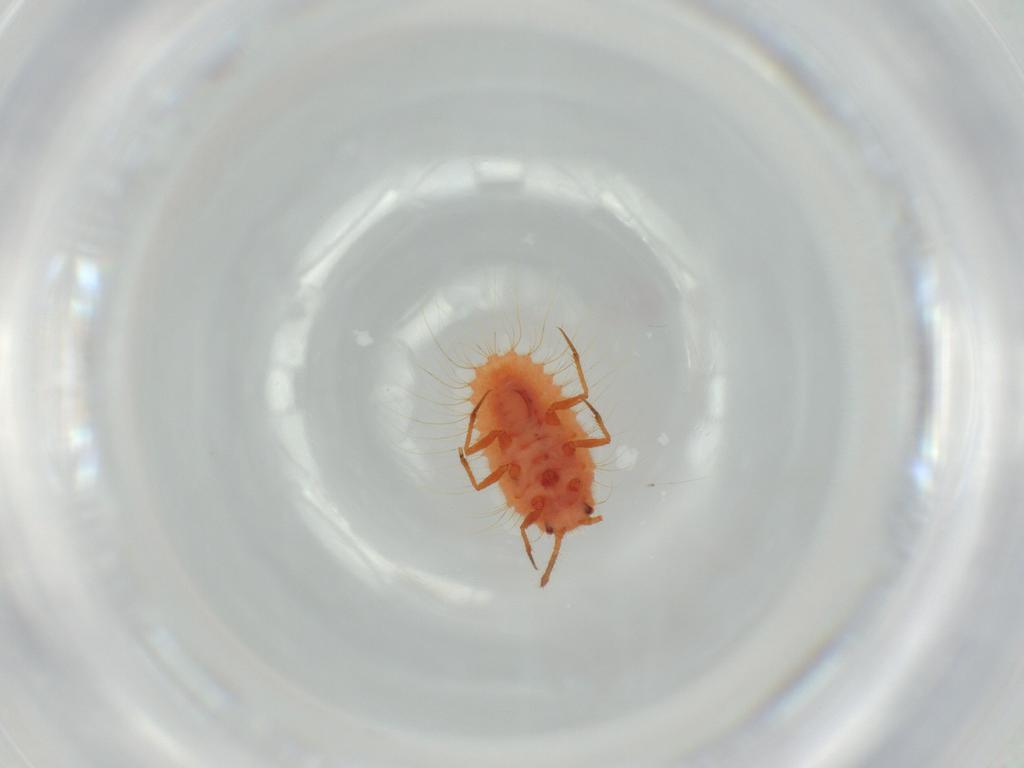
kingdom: Animalia
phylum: Arthropoda
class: Insecta
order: Hemiptera
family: Coccoidea_incertae_sedis
